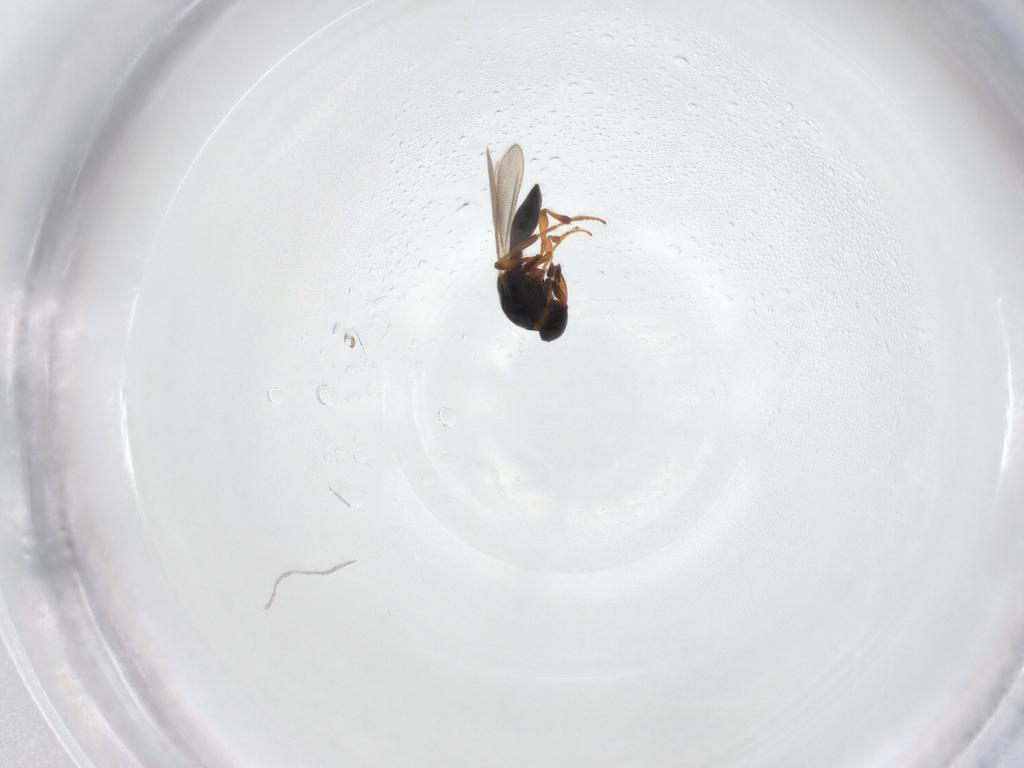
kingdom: Animalia
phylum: Arthropoda
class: Insecta
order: Hymenoptera
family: Platygastridae
